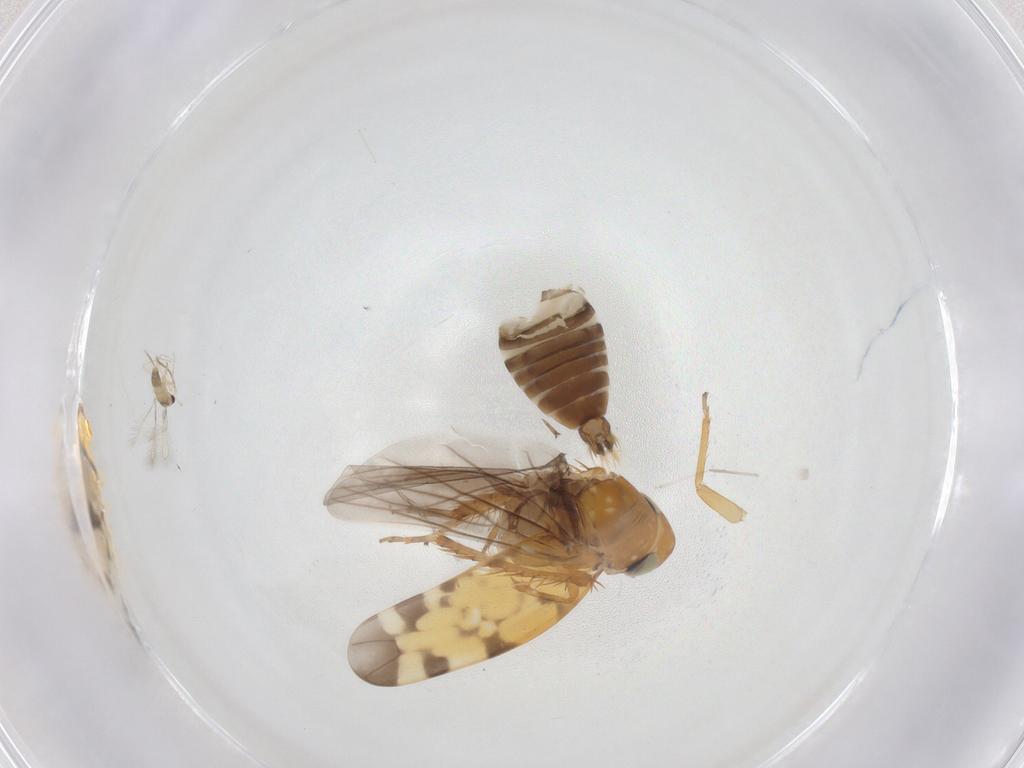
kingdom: Animalia
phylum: Arthropoda
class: Insecta
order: Hemiptera
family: Cicadellidae
